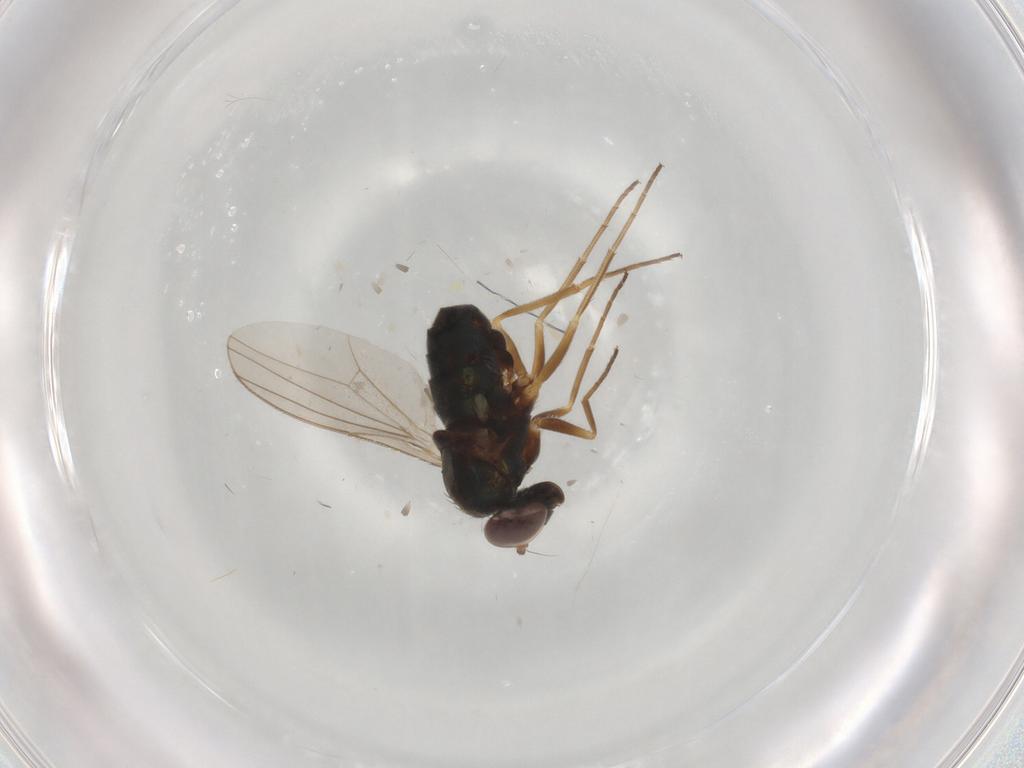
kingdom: Animalia
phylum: Arthropoda
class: Insecta
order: Diptera
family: Dolichopodidae
